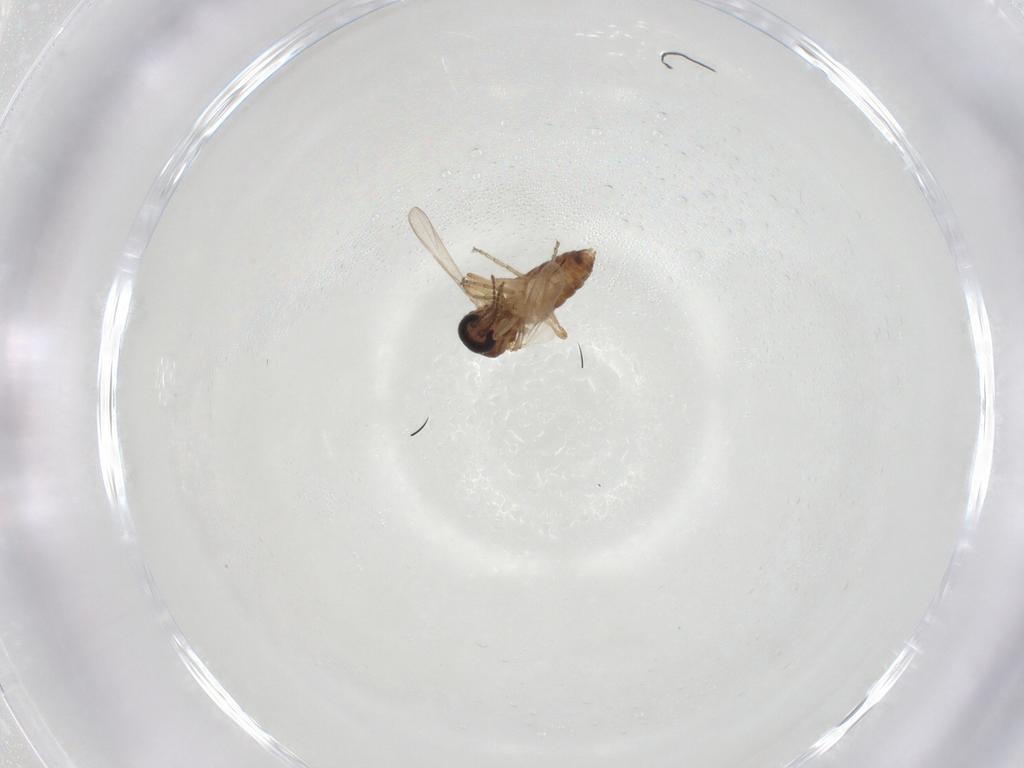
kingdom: Animalia
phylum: Arthropoda
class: Insecta
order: Diptera
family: Ceratopogonidae
